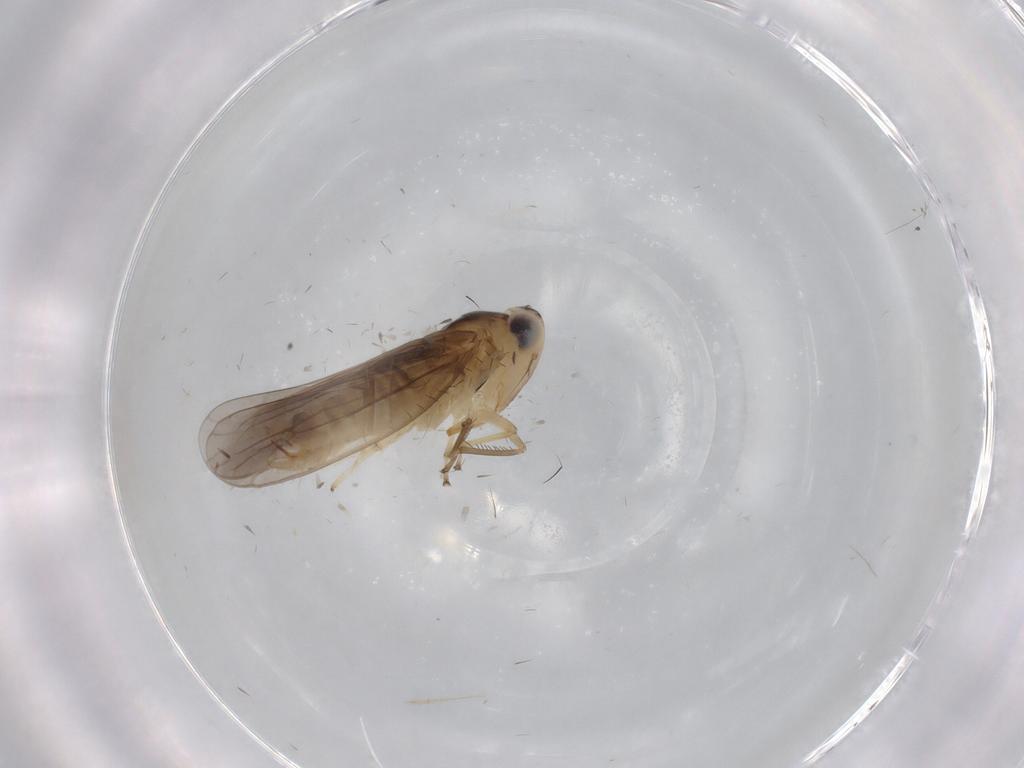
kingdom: Animalia
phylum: Arthropoda
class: Insecta
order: Hemiptera
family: Cicadellidae
